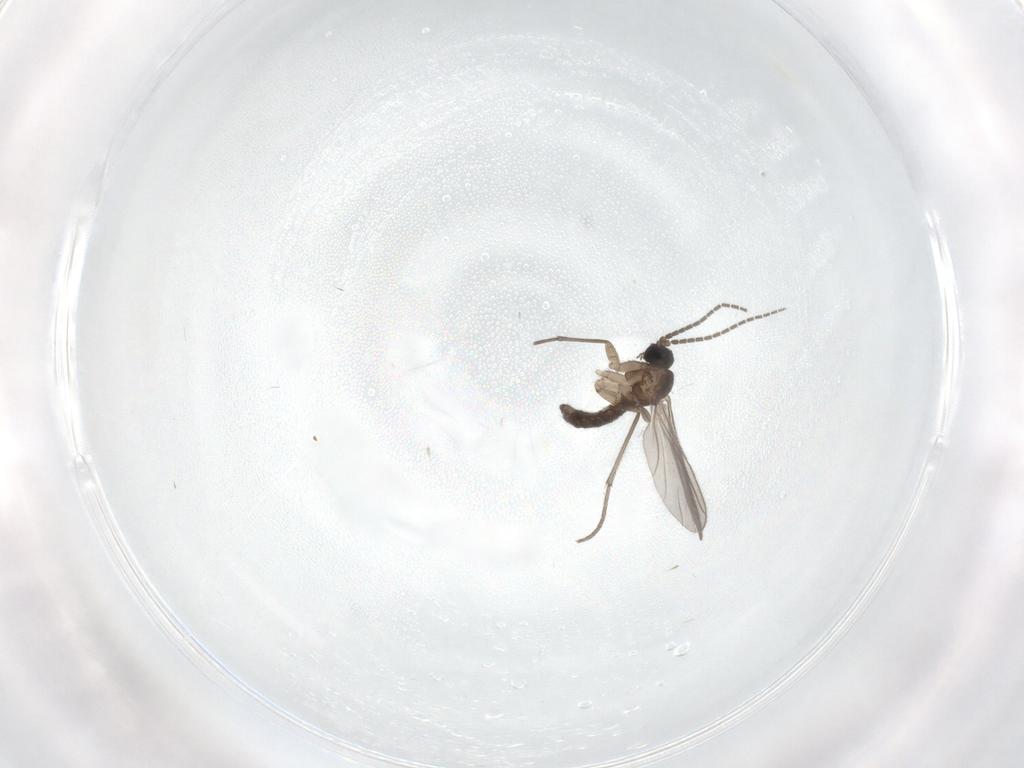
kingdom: Animalia
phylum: Arthropoda
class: Insecta
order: Diptera
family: Sciaridae
